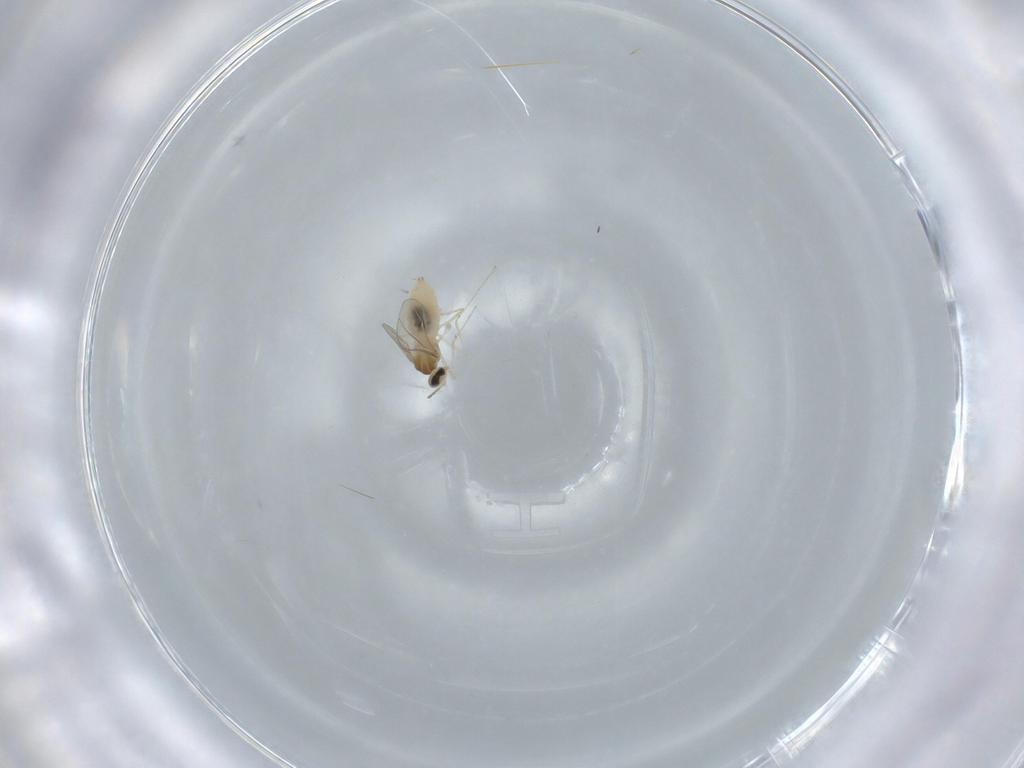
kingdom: Animalia
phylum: Arthropoda
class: Insecta
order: Diptera
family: Cecidomyiidae
